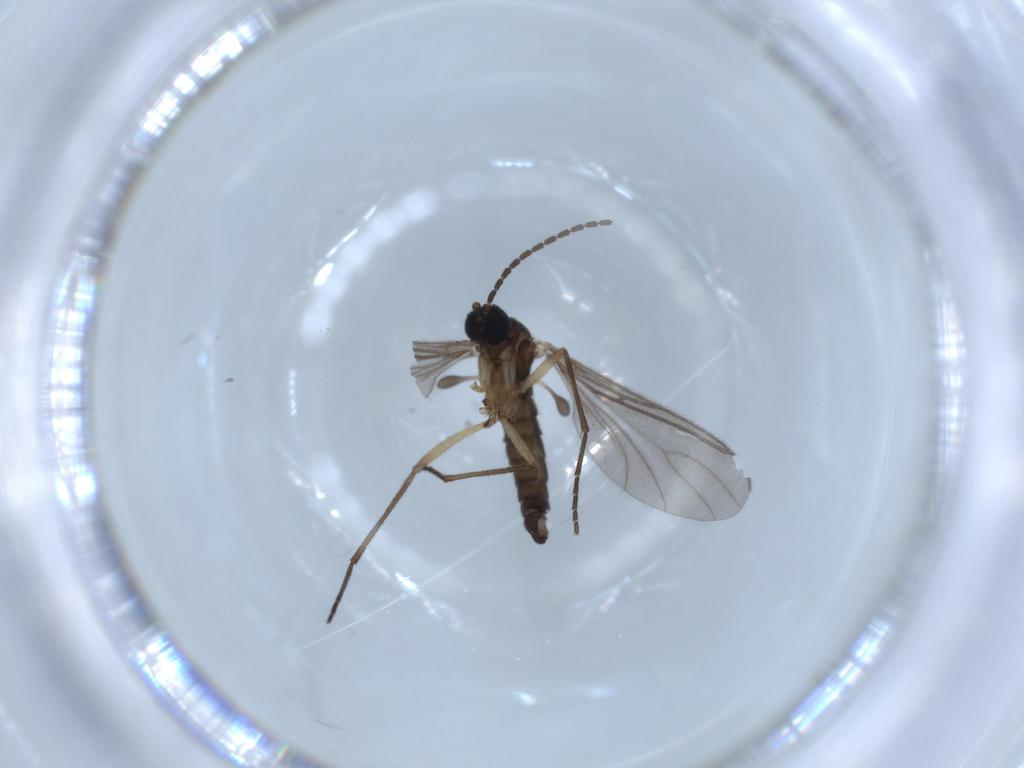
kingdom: Animalia
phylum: Arthropoda
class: Insecta
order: Diptera
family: Sciaridae
